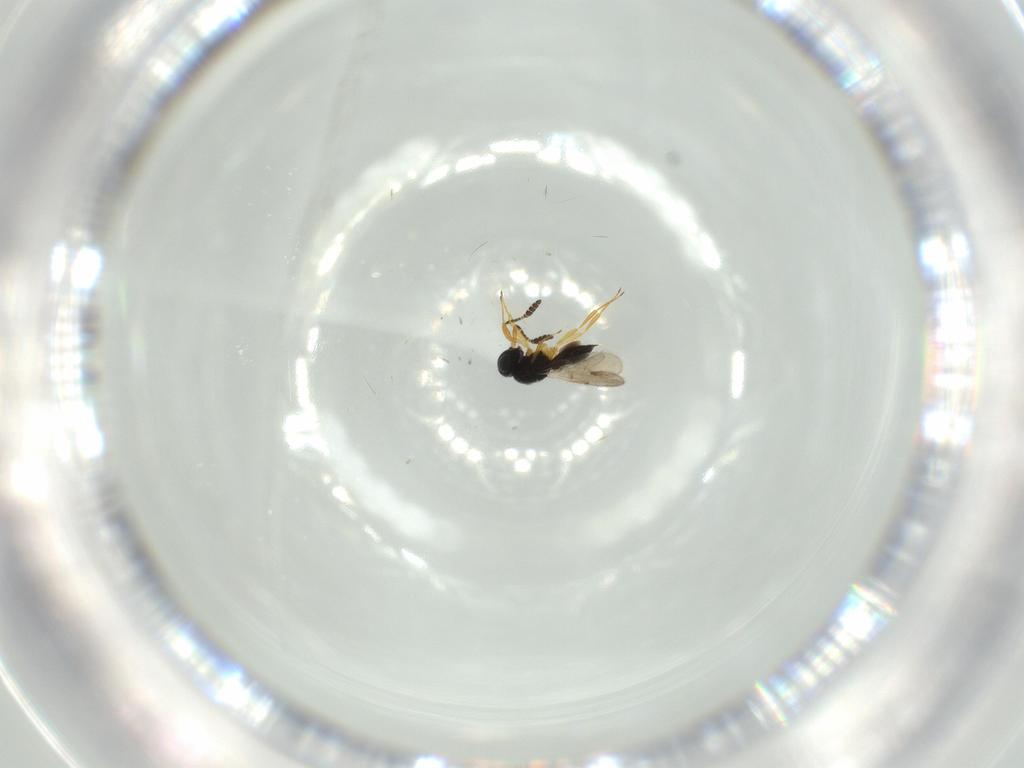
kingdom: Animalia
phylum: Arthropoda
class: Insecta
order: Hymenoptera
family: Scelionidae
